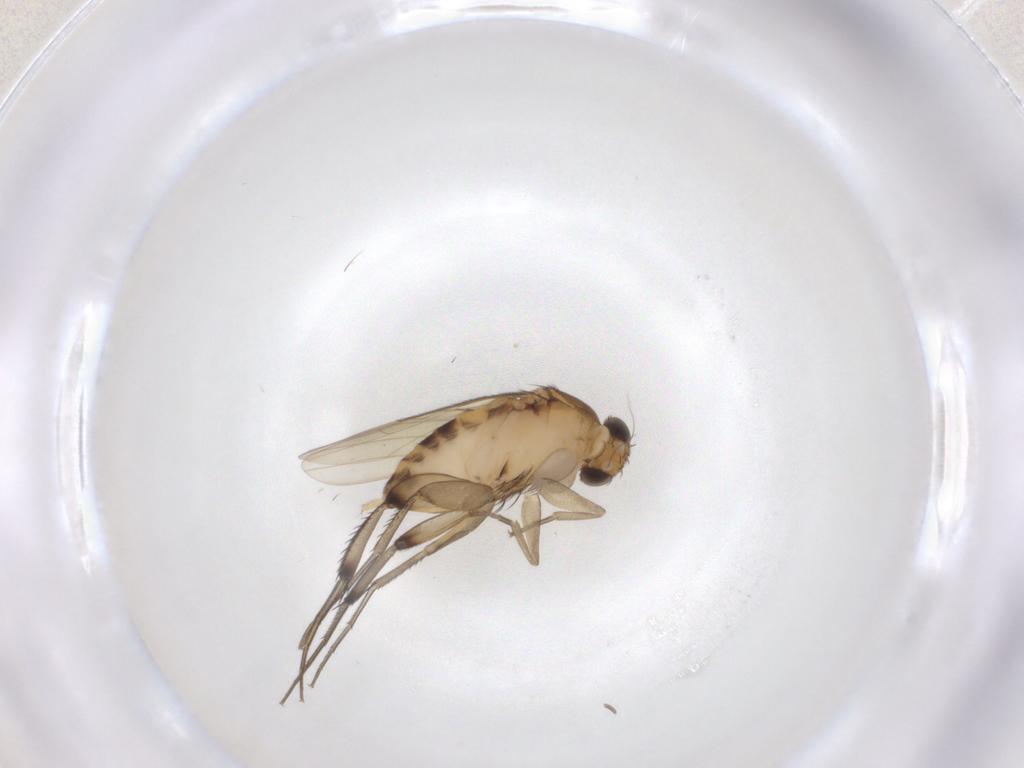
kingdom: Animalia
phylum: Arthropoda
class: Insecta
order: Diptera
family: Phoridae
